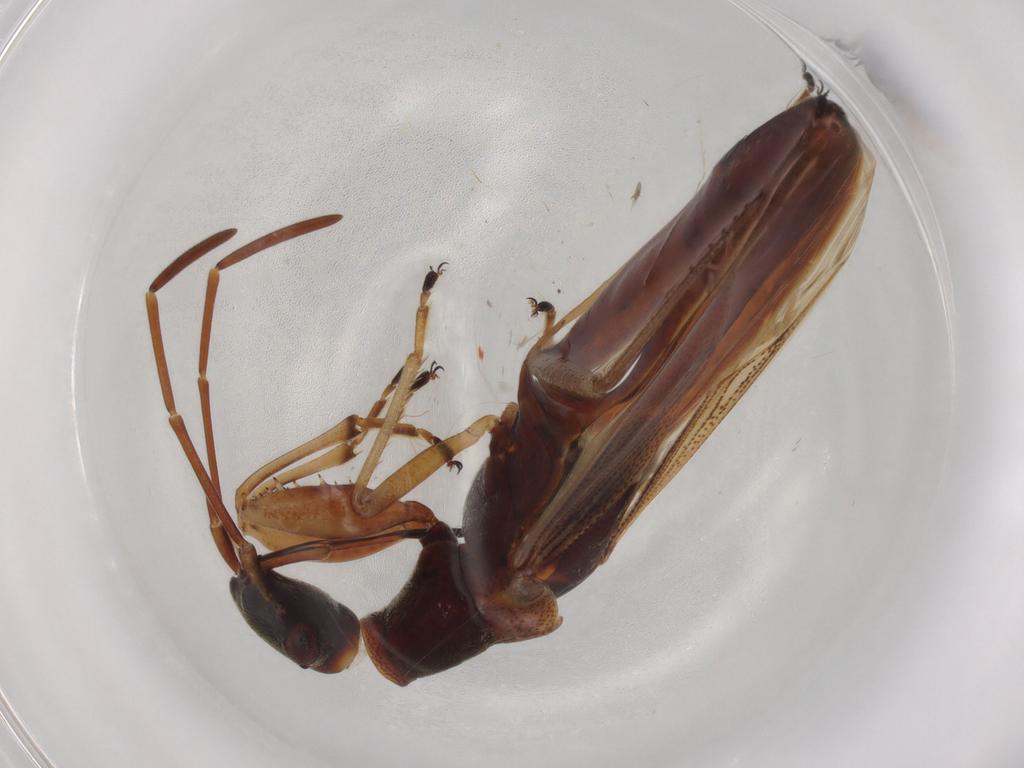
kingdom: Animalia
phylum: Arthropoda
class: Insecta
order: Hemiptera
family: Rhyparochromidae
